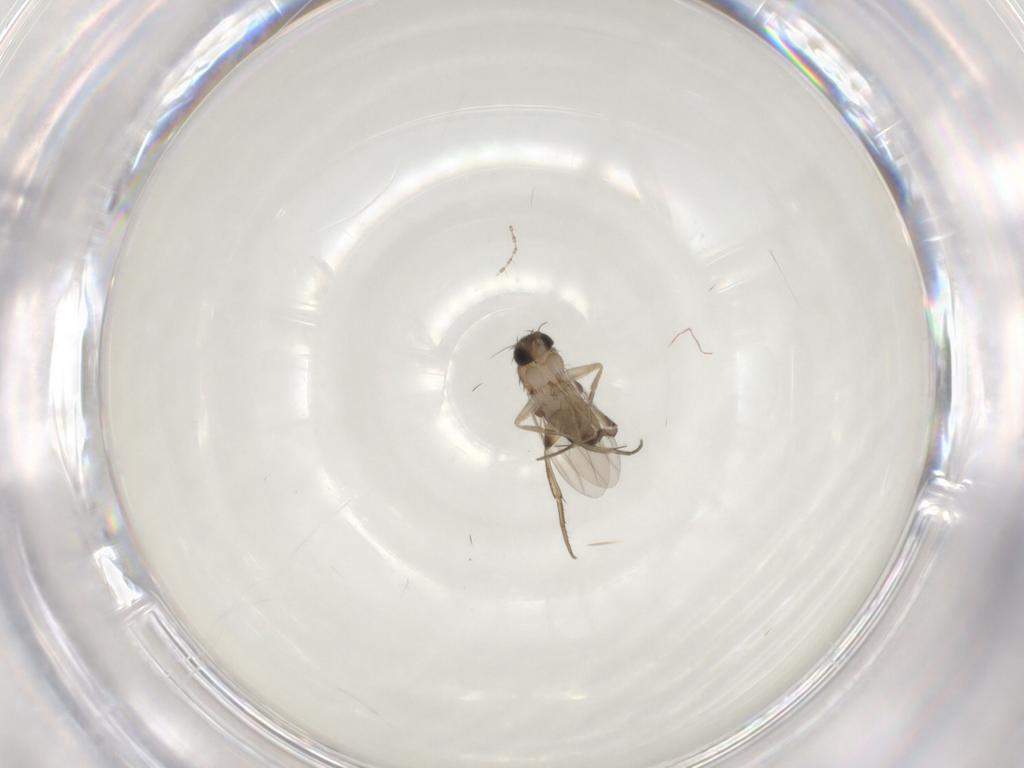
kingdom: Animalia
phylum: Arthropoda
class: Insecta
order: Diptera
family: Phoridae
